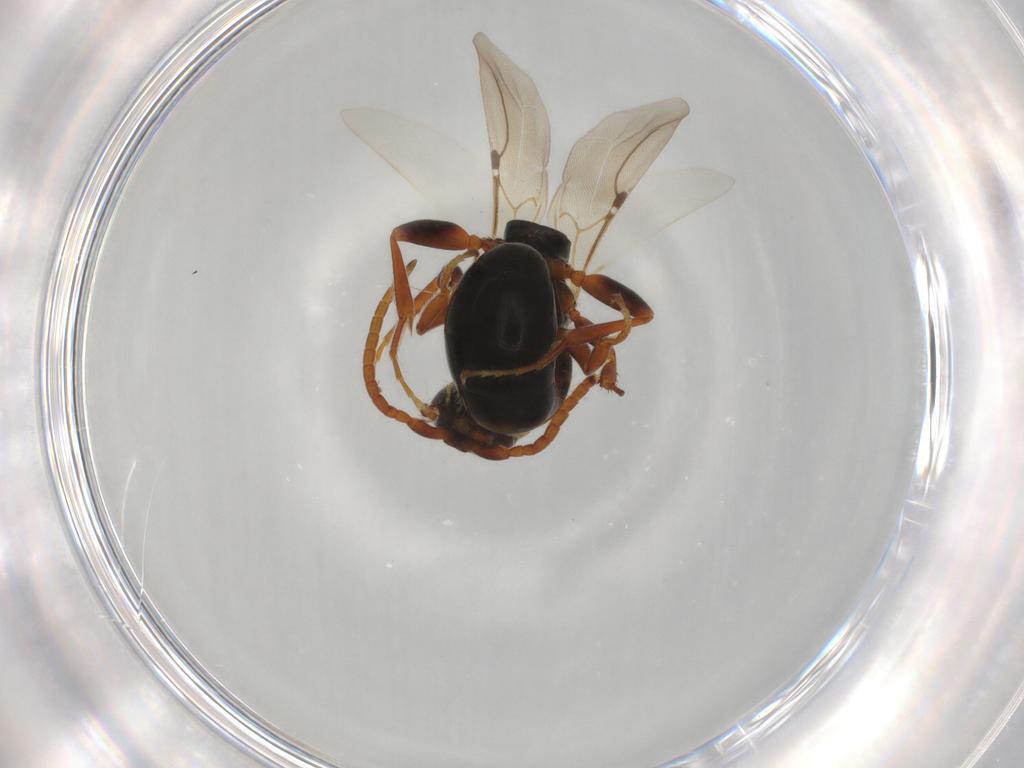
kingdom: Animalia
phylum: Arthropoda
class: Insecta
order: Hymenoptera
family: Bethylidae
